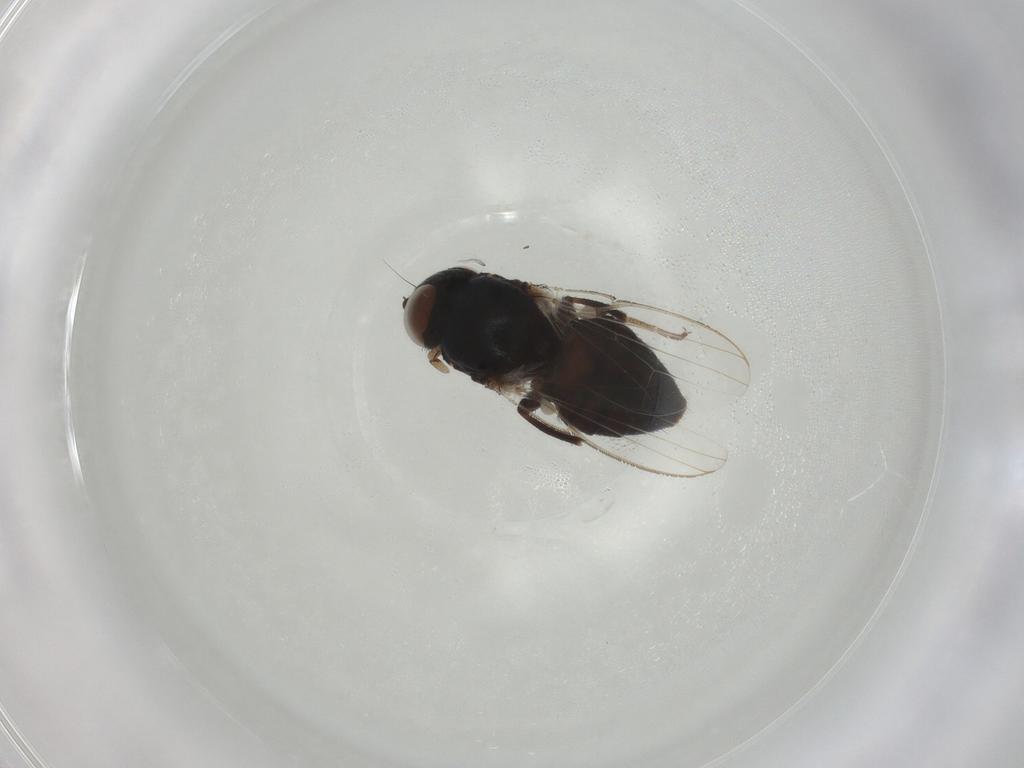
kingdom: Animalia
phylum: Arthropoda
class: Insecta
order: Diptera
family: Milichiidae
